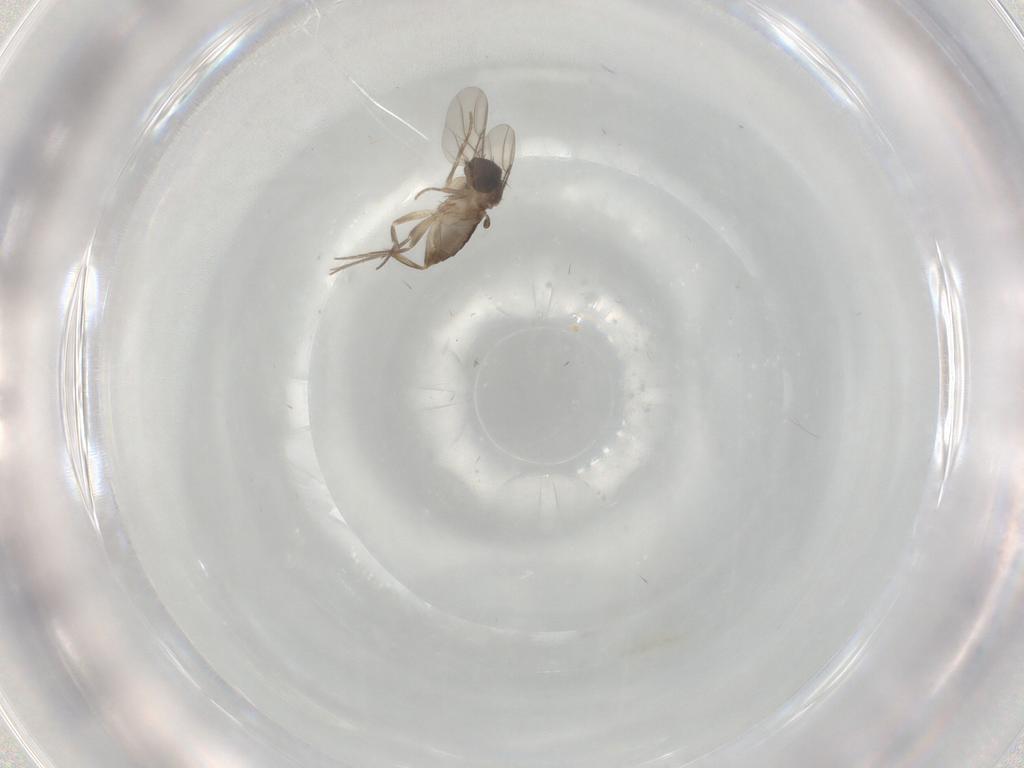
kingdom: Animalia
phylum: Arthropoda
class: Insecta
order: Diptera
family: Phoridae
